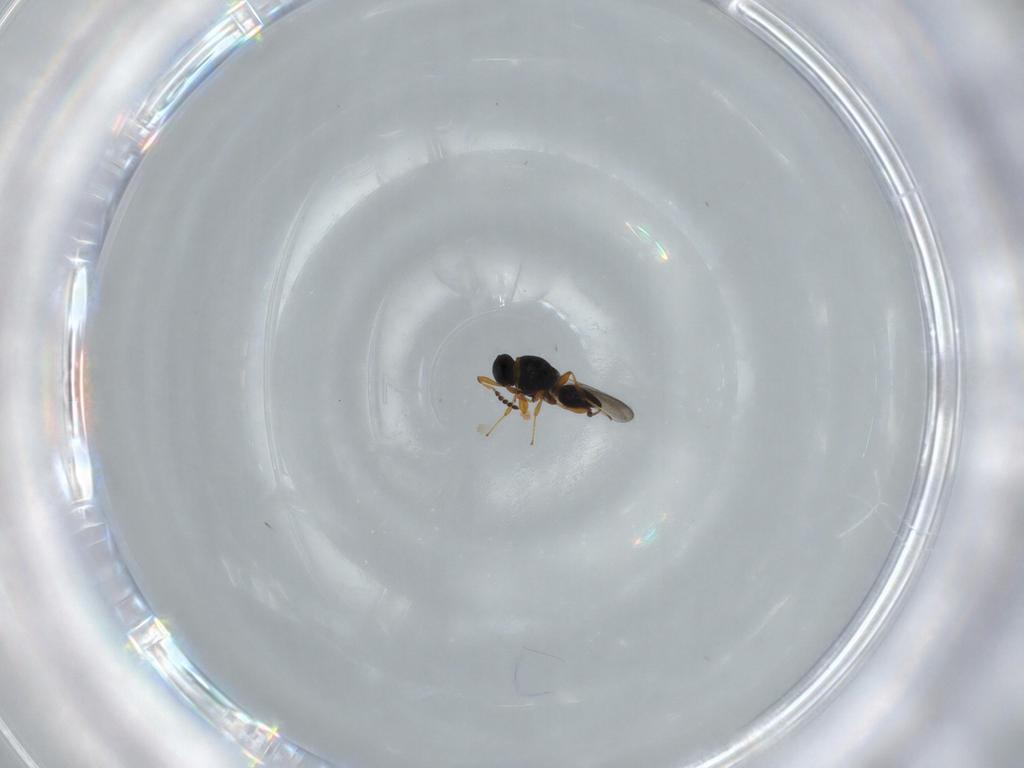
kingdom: Animalia
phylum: Arthropoda
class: Insecta
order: Hymenoptera
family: Platygastridae
